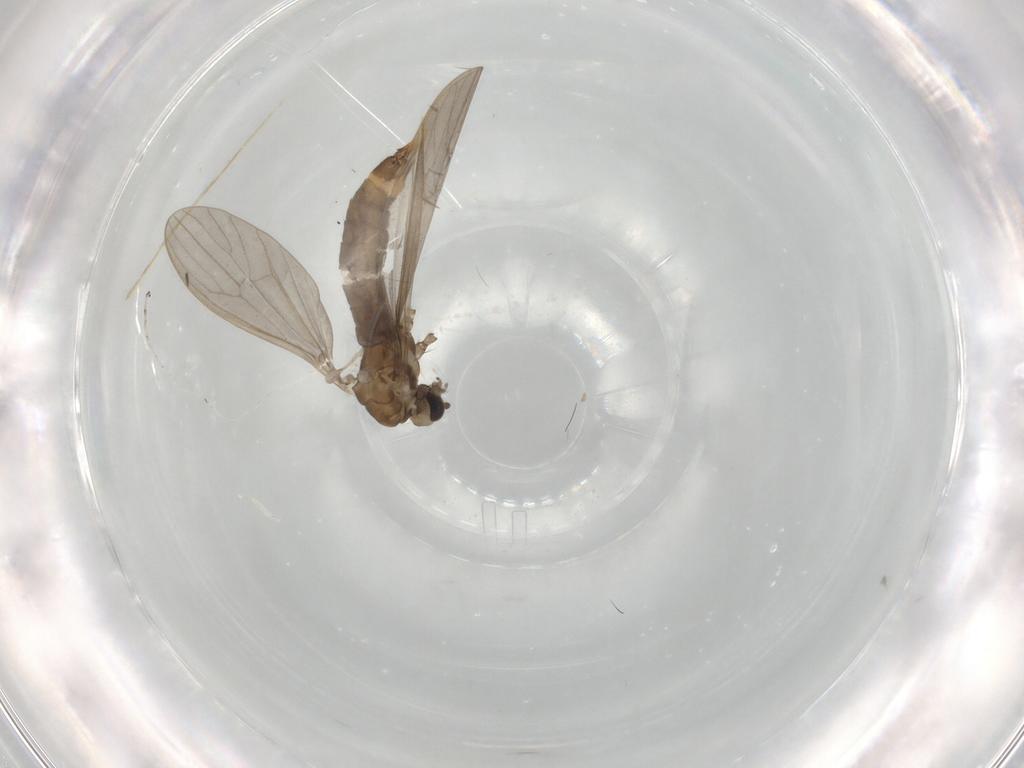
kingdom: Animalia
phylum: Arthropoda
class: Insecta
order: Diptera
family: Limoniidae
